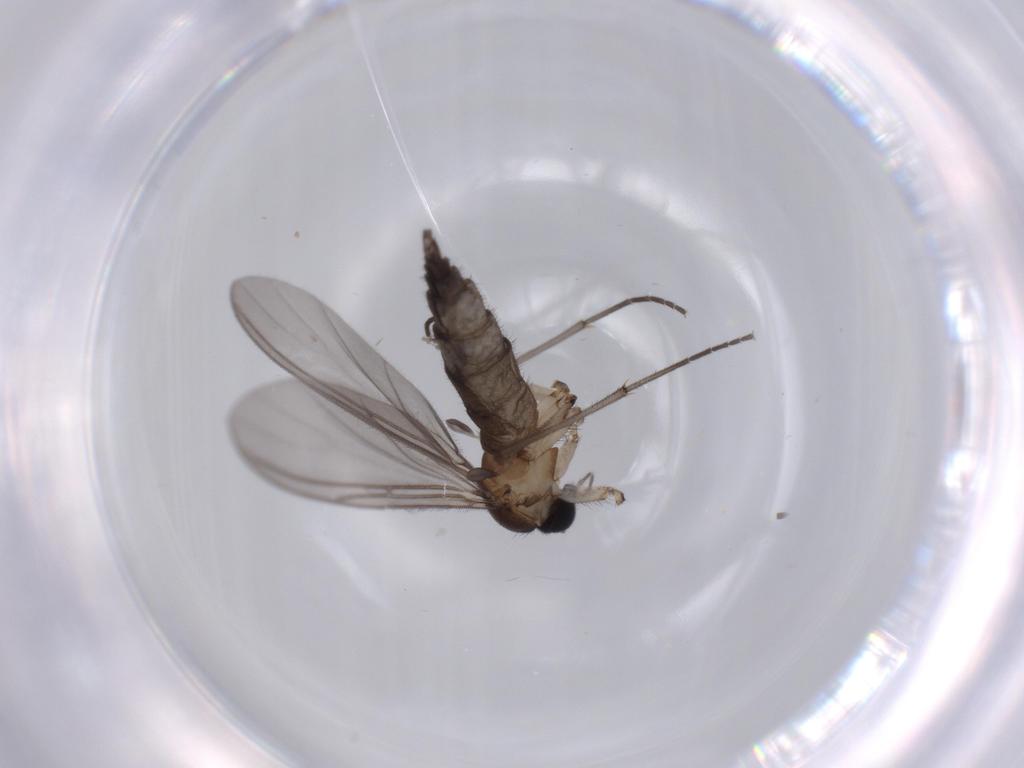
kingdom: Animalia
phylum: Arthropoda
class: Insecta
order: Diptera
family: Sciaridae
